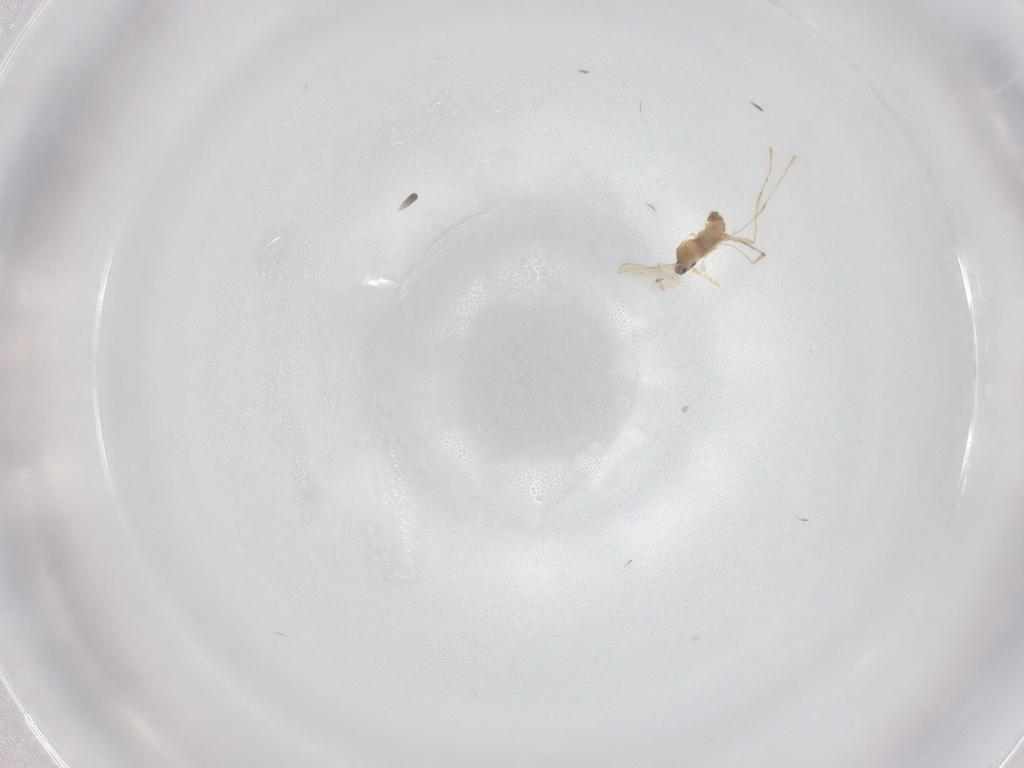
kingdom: Animalia
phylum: Arthropoda
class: Insecta
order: Diptera
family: Cecidomyiidae
